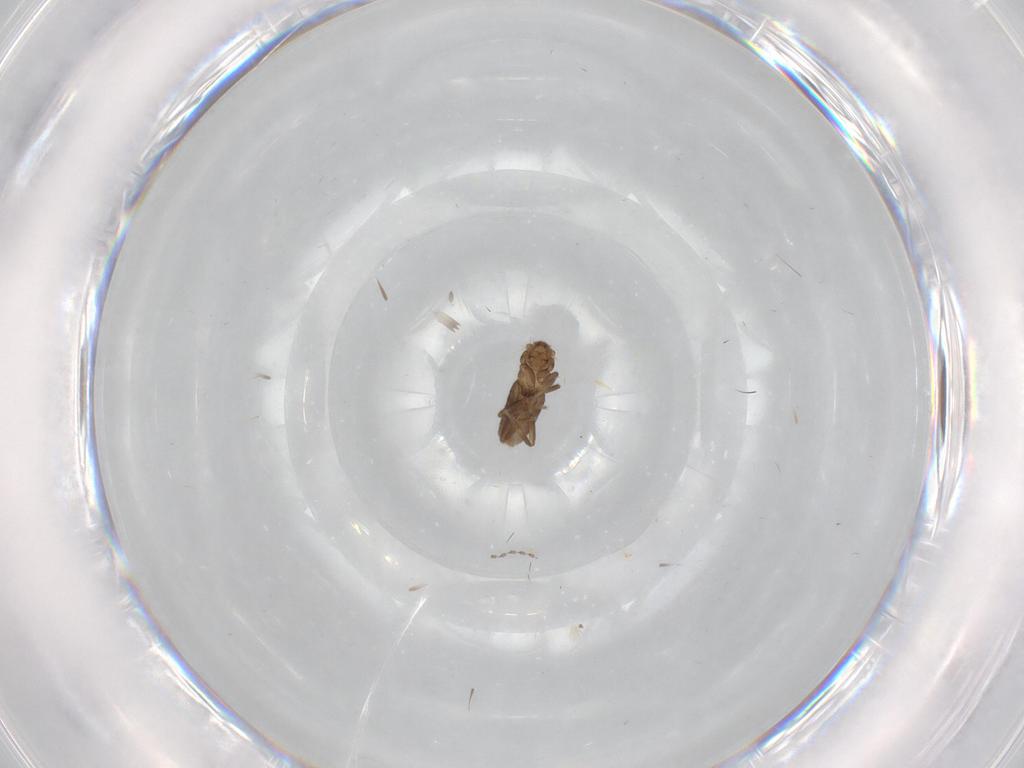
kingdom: Animalia
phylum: Arthropoda
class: Insecta
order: Diptera
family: Phoridae
